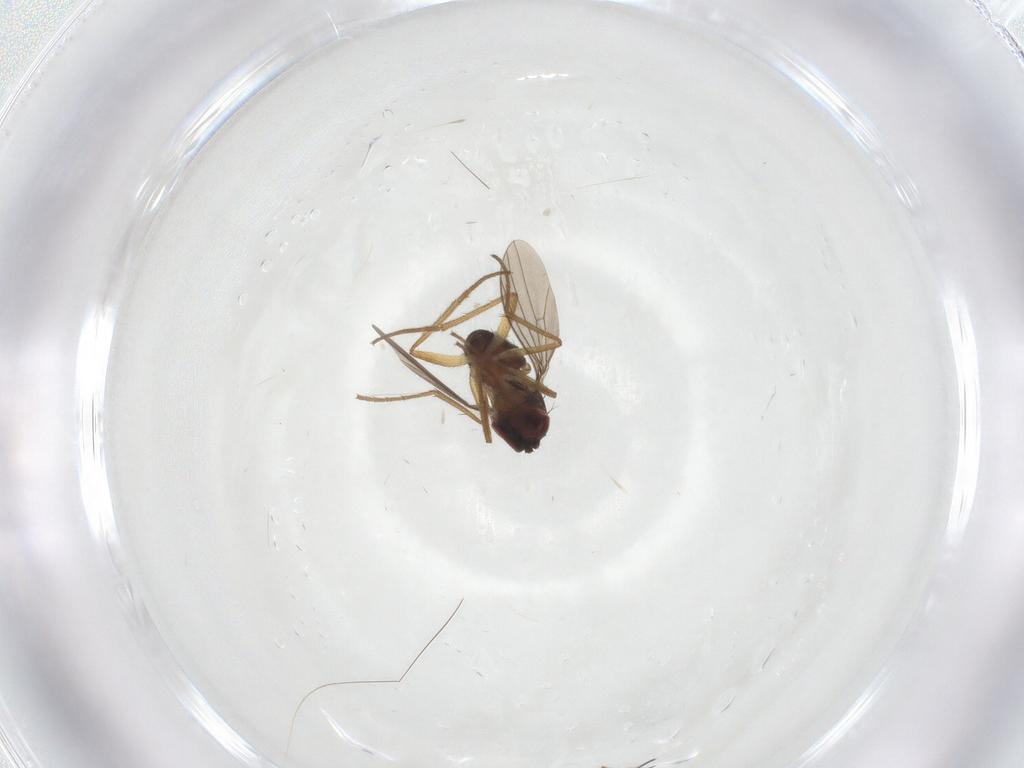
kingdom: Animalia
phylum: Arthropoda
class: Insecta
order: Diptera
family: Dolichopodidae
